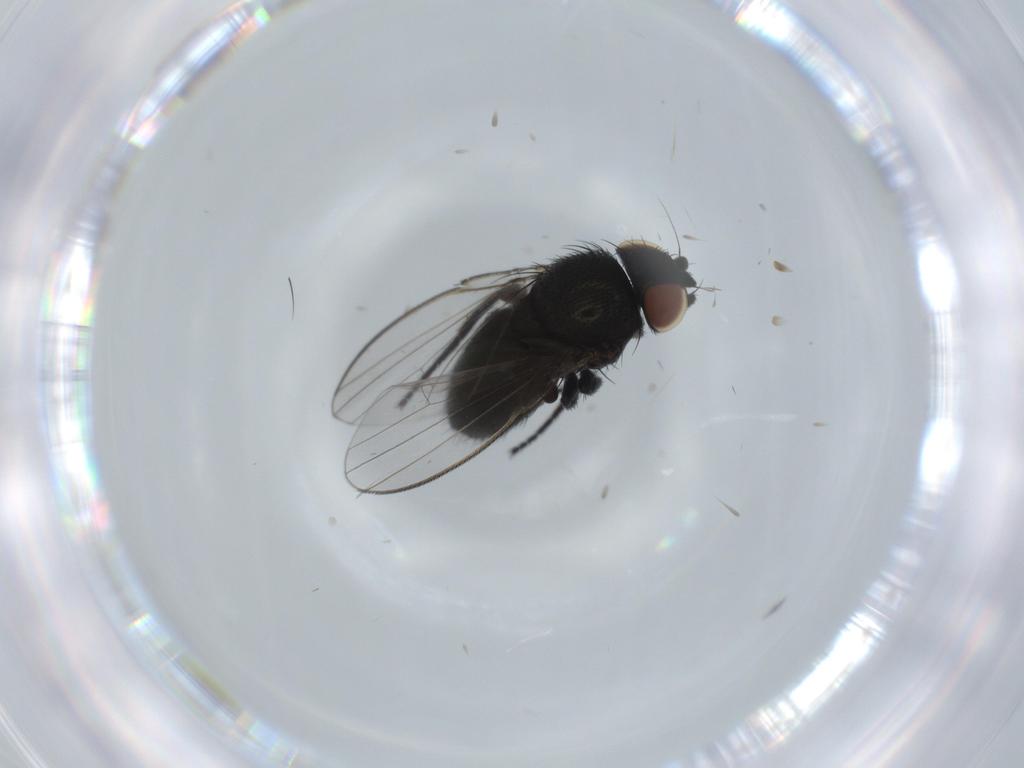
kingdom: Animalia
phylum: Arthropoda
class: Insecta
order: Diptera
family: Milichiidae
